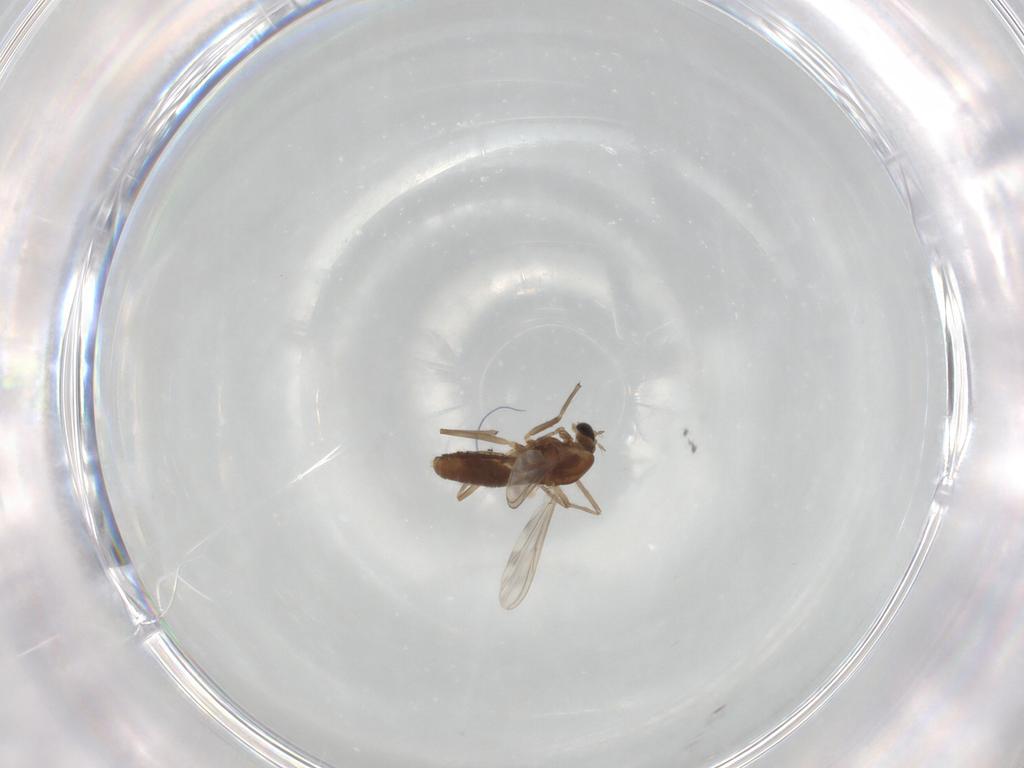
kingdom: Animalia
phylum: Arthropoda
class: Insecta
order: Diptera
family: Chironomidae
